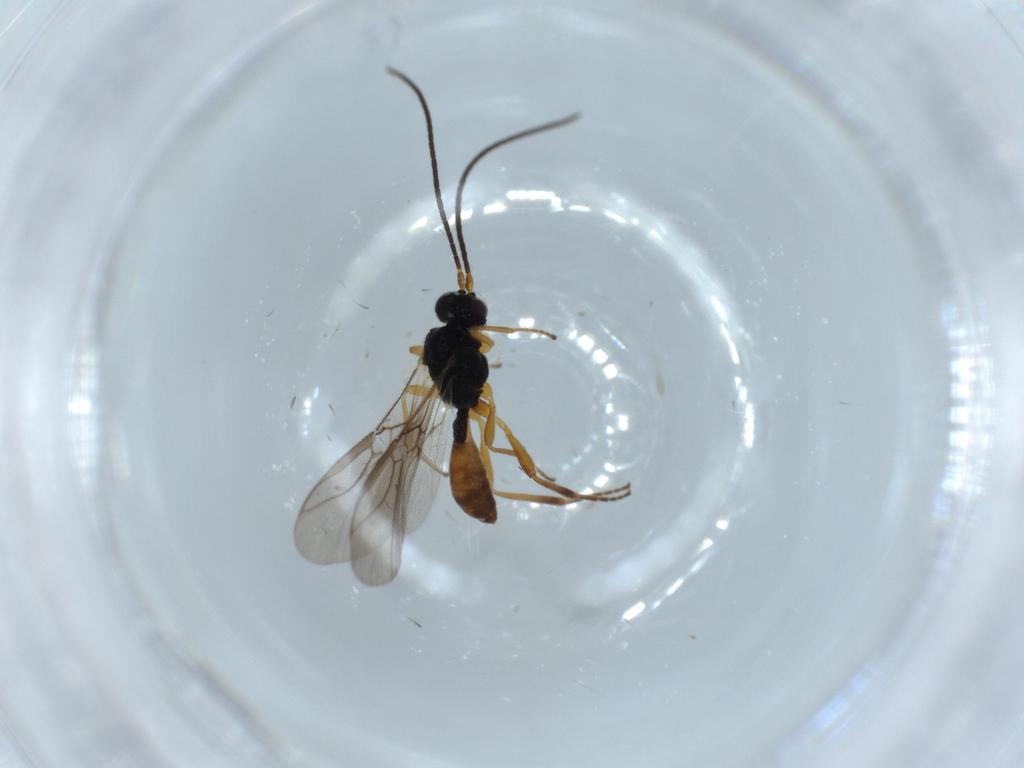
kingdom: Animalia
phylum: Arthropoda
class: Insecta
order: Hymenoptera
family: Braconidae
